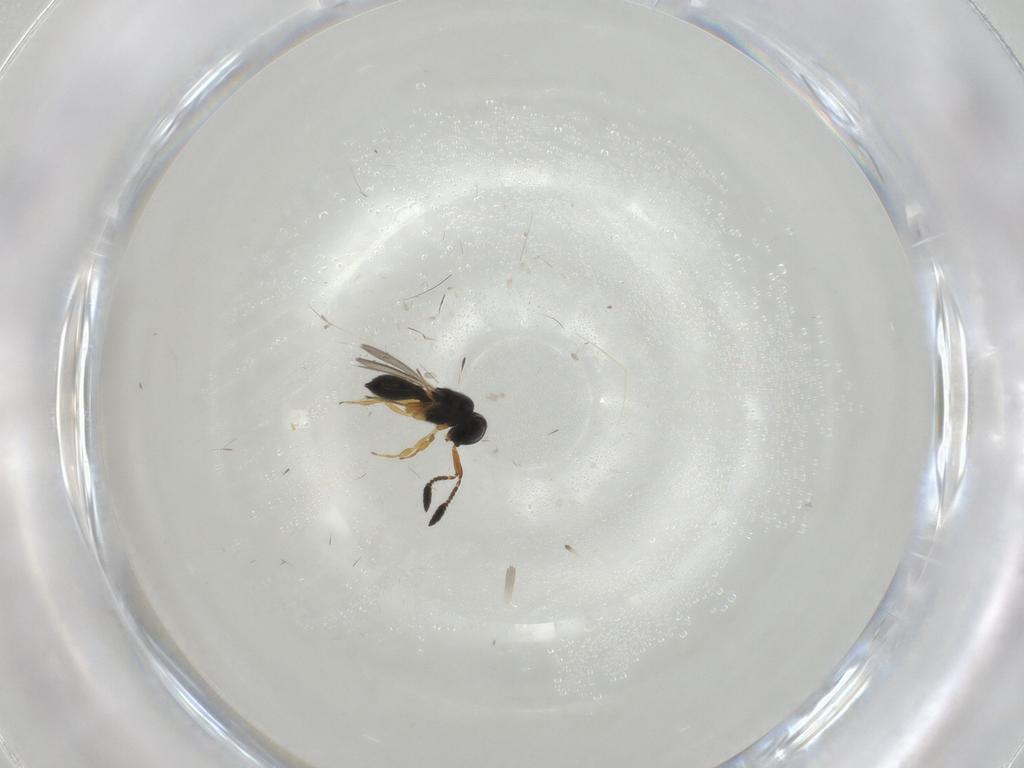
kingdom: Animalia
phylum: Arthropoda
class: Insecta
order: Hymenoptera
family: Scelionidae
